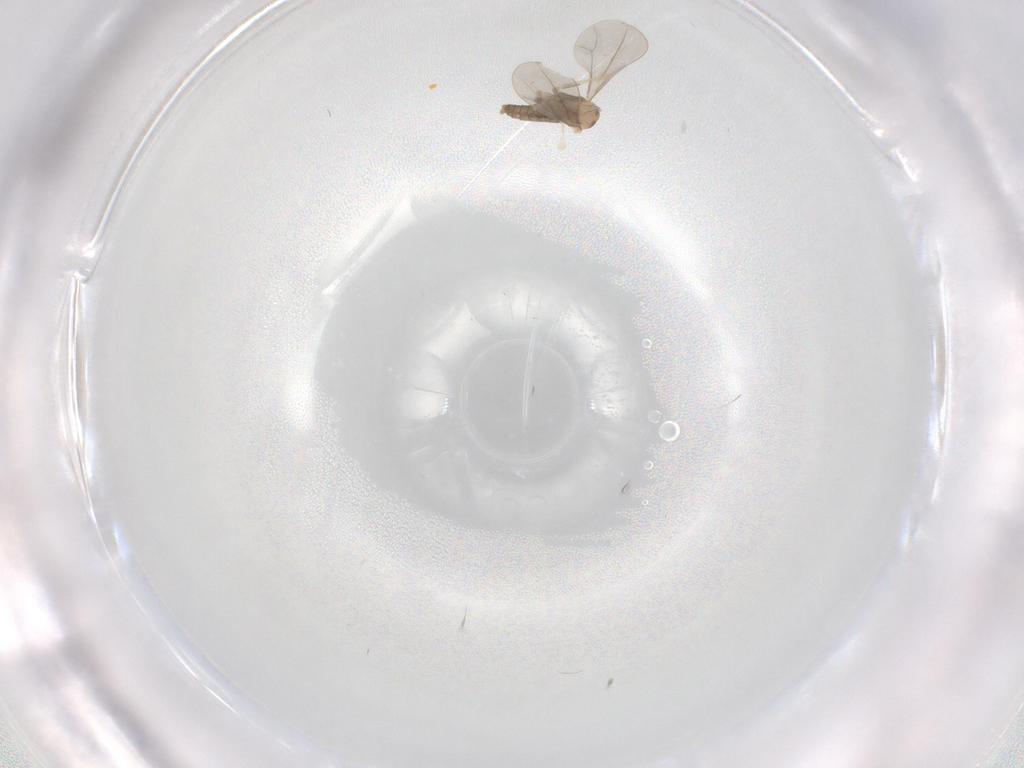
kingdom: Animalia
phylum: Arthropoda
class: Insecta
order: Diptera
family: Cecidomyiidae
